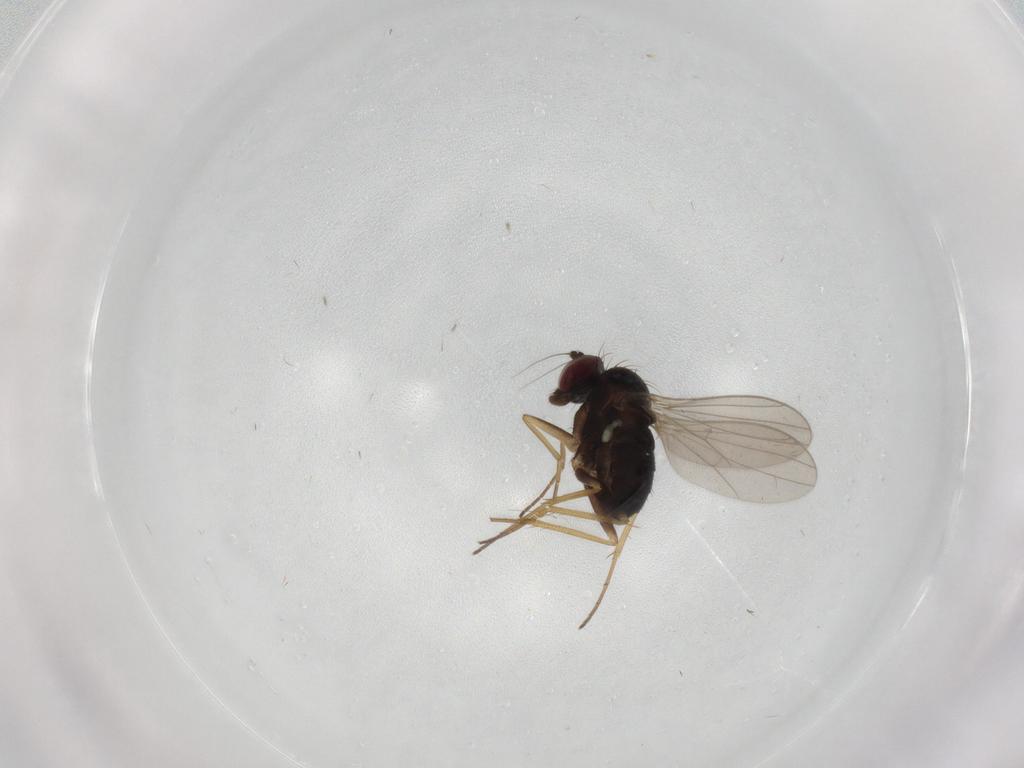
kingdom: Animalia
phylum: Arthropoda
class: Insecta
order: Diptera
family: Dolichopodidae
